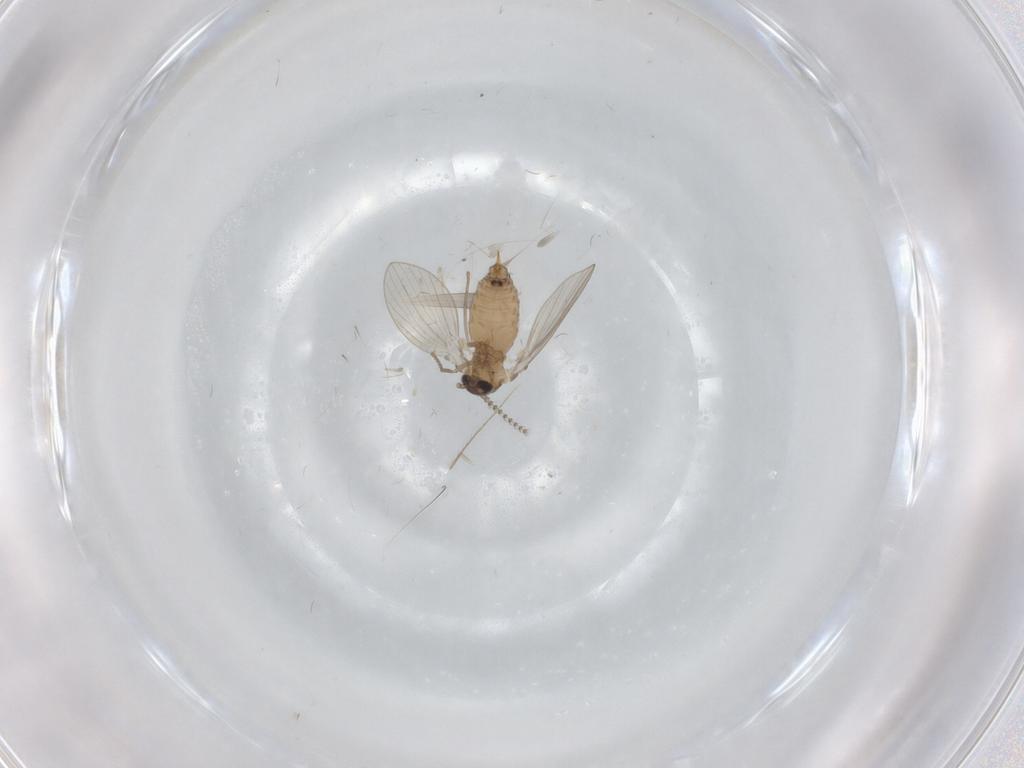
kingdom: Animalia
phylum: Arthropoda
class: Insecta
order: Diptera
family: Psychodidae
